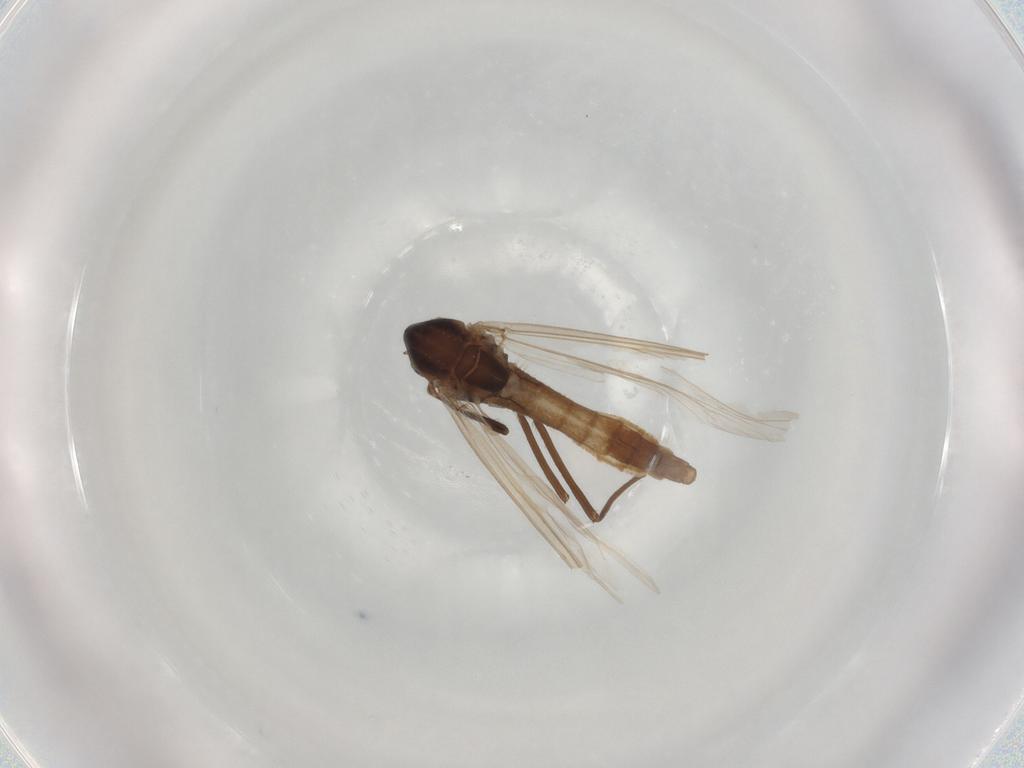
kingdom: Animalia
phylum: Arthropoda
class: Insecta
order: Diptera
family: Chironomidae
